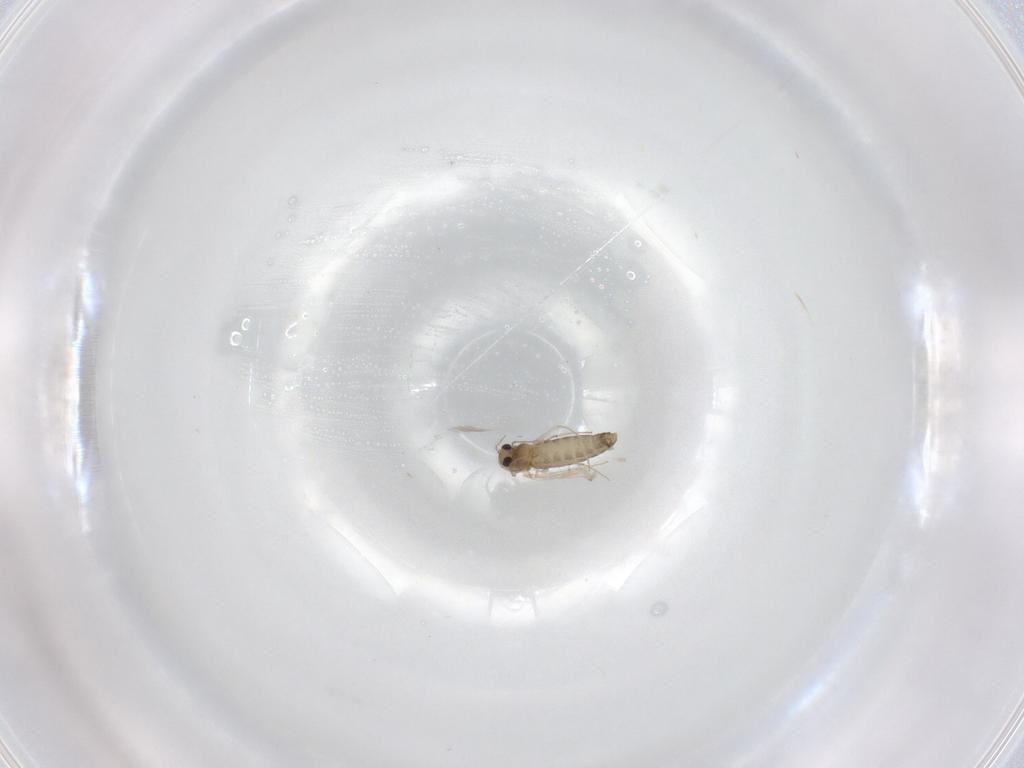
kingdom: Animalia
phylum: Arthropoda
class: Insecta
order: Diptera
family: Chironomidae
